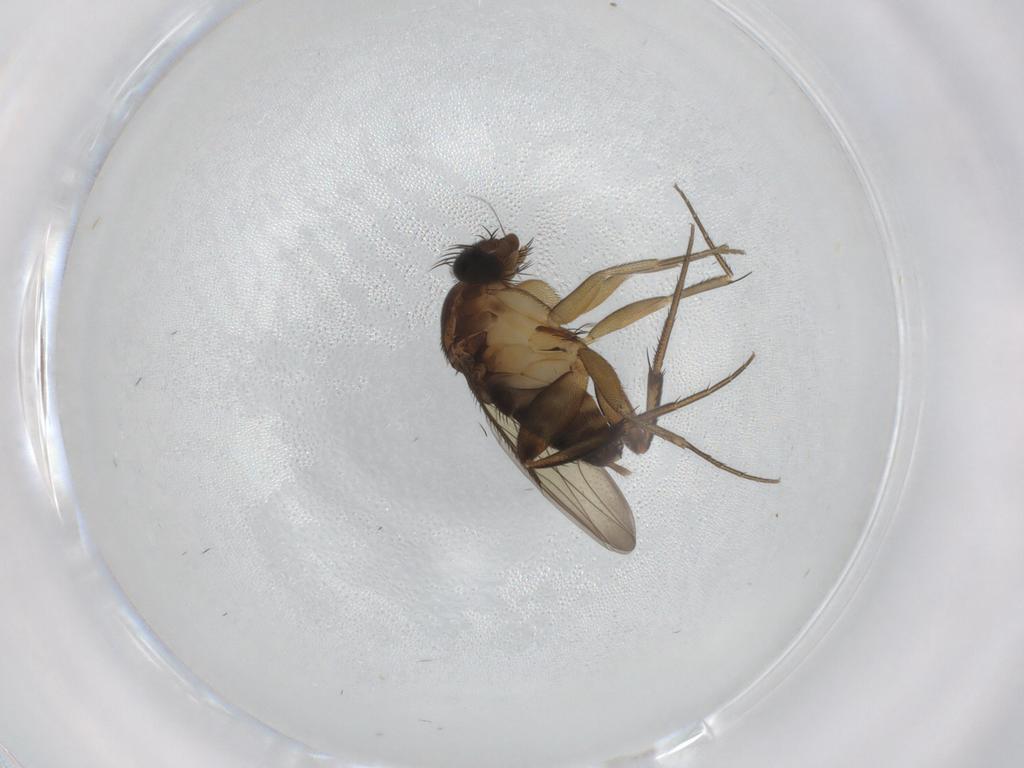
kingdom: Animalia
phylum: Arthropoda
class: Insecta
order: Diptera
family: Phoridae
